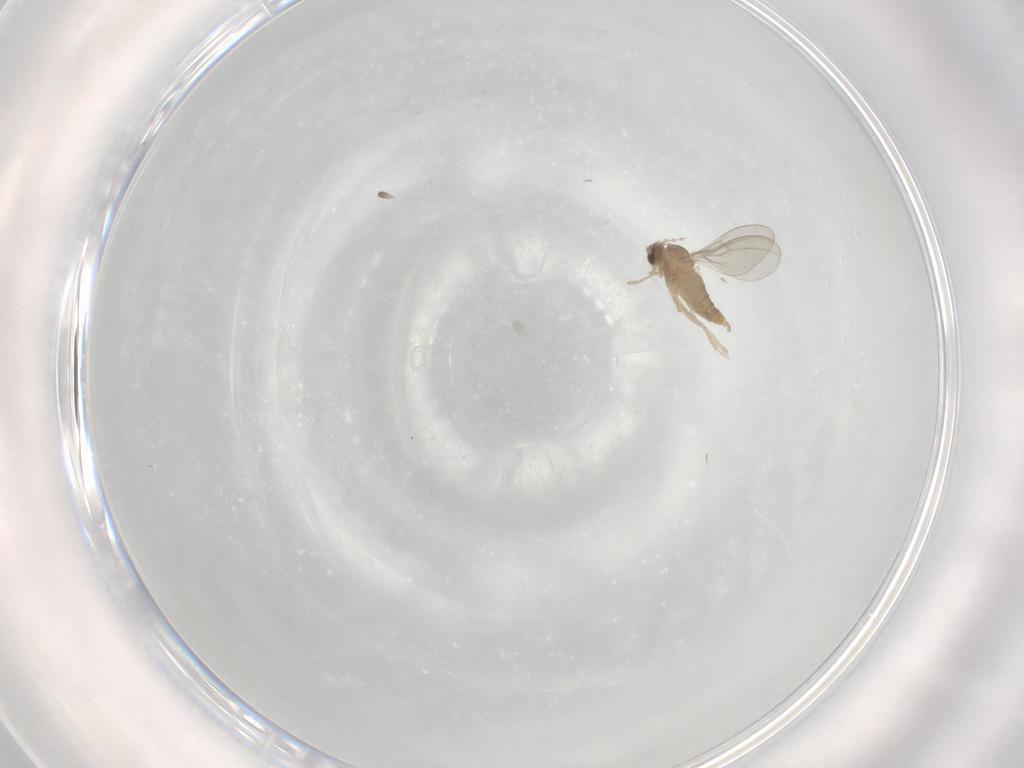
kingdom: Animalia
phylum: Arthropoda
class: Insecta
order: Diptera
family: Cecidomyiidae
